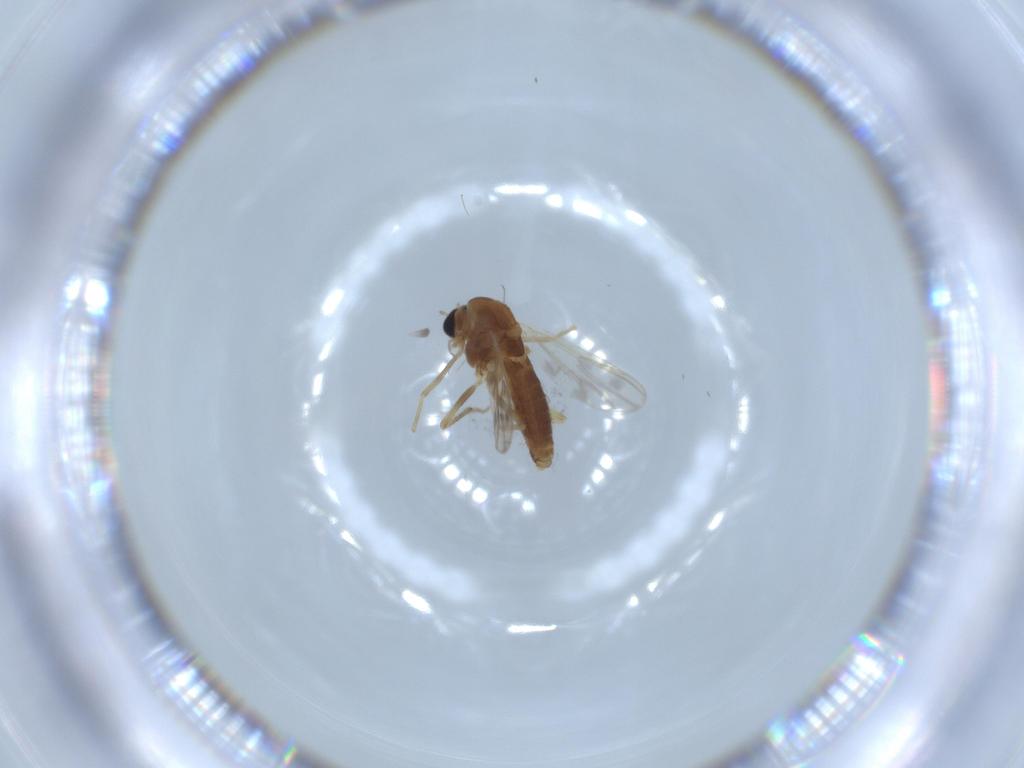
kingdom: Animalia
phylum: Arthropoda
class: Insecta
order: Diptera
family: Chironomidae
